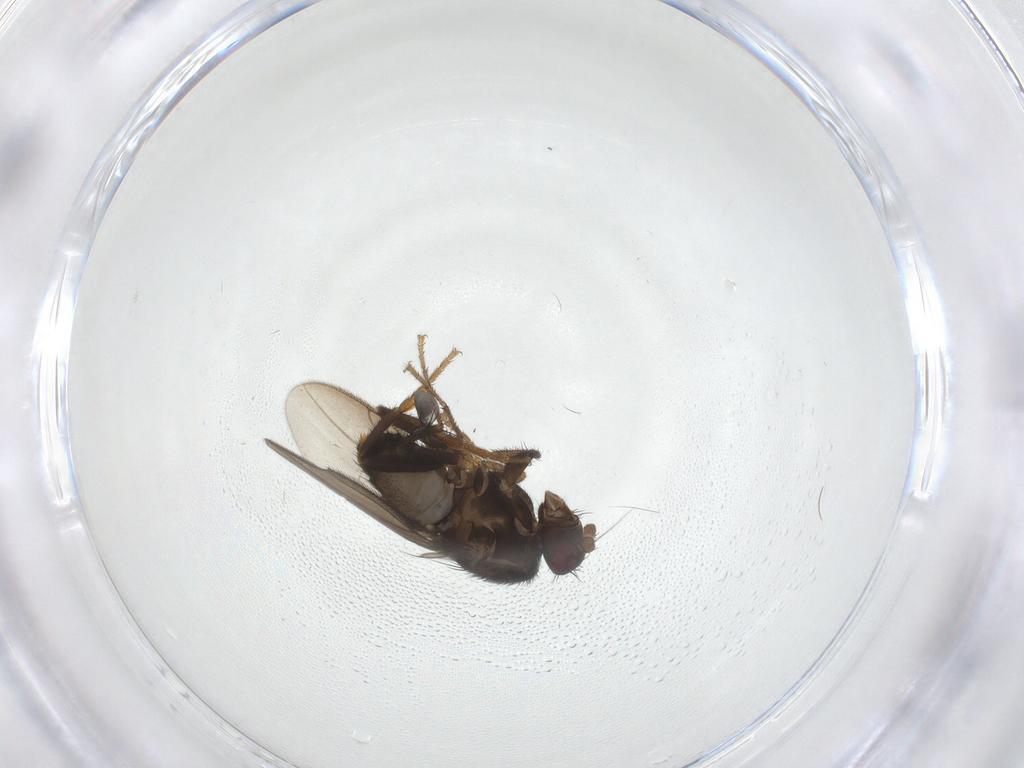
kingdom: Animalia
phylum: Arthropoda
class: Insecta
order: Diptera
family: Sphaeroceridae
